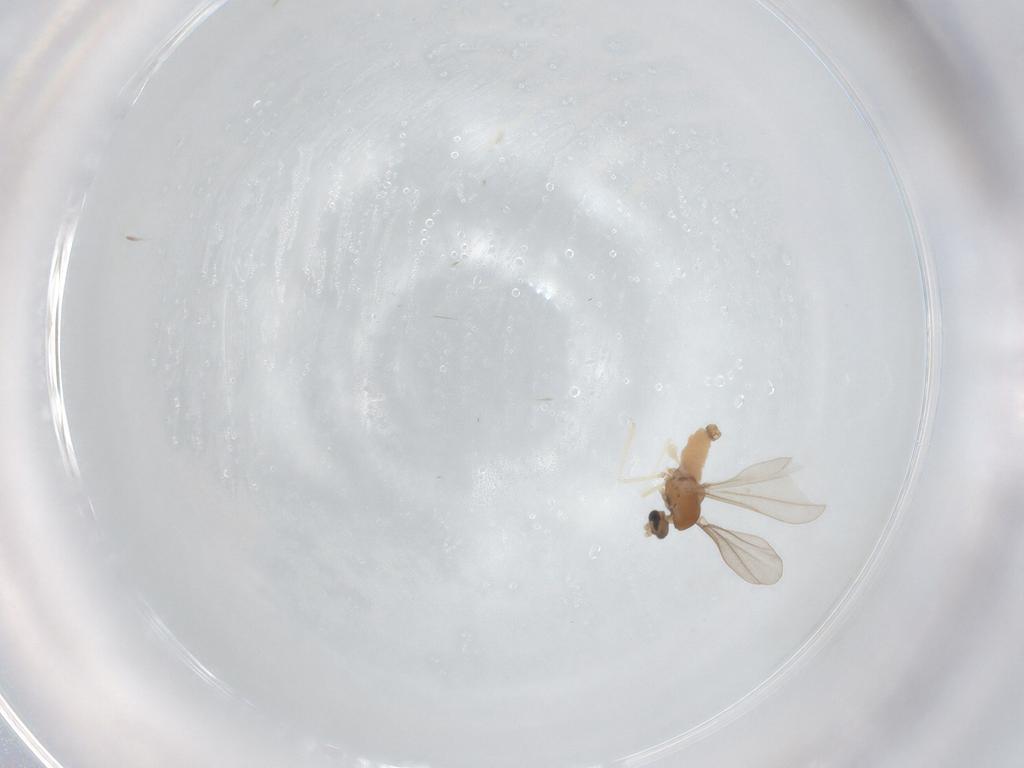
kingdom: Animalia
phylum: Arthropoda
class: Insecta
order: Diptera
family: Cecidomyiidae
